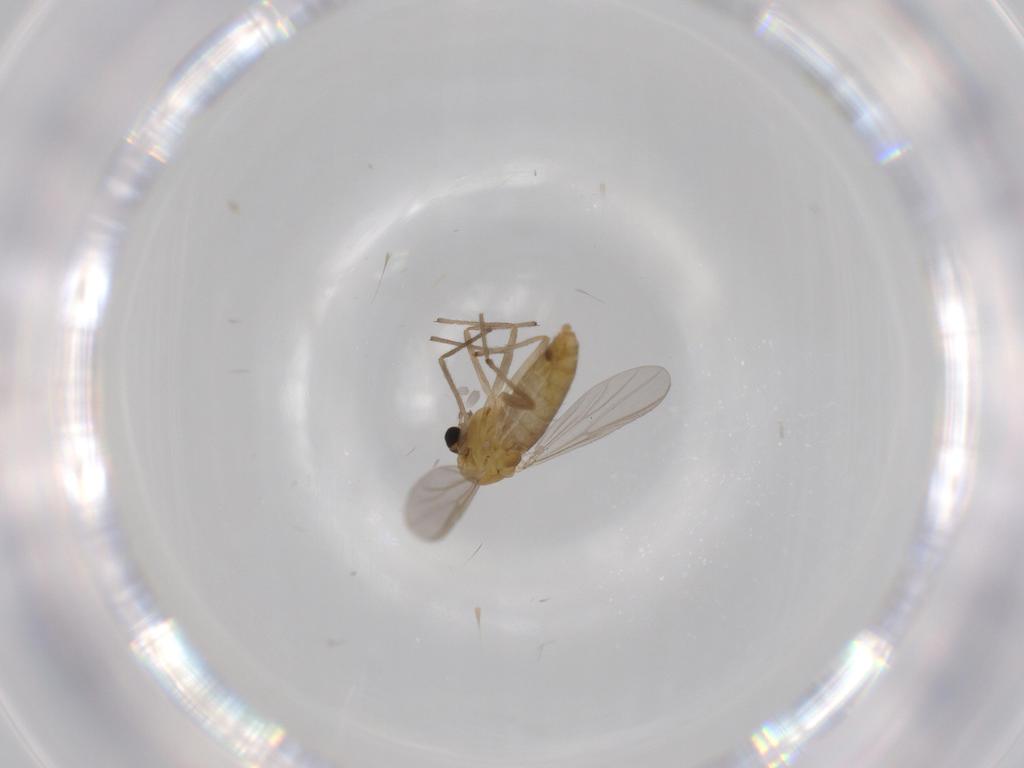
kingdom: Animalia
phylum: Arthropoda
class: Insecta
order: Diptera
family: Chironomidae
